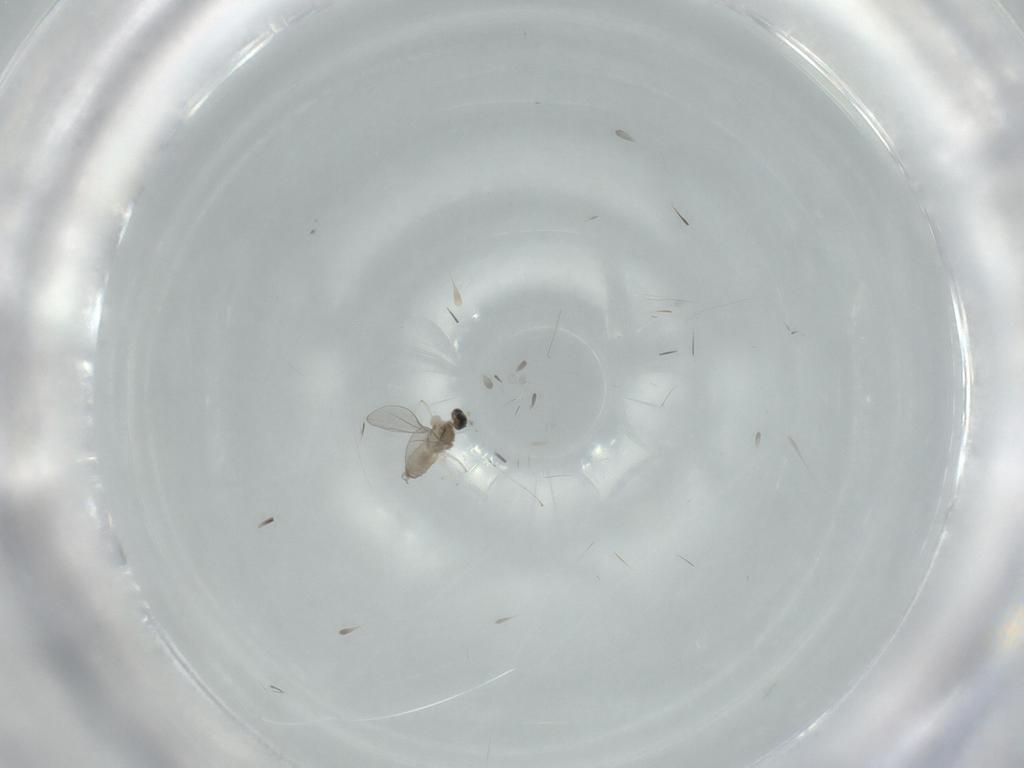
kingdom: Animalia
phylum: Arthropoda
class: Insecta
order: Diptera
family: Cecidomyiidae
